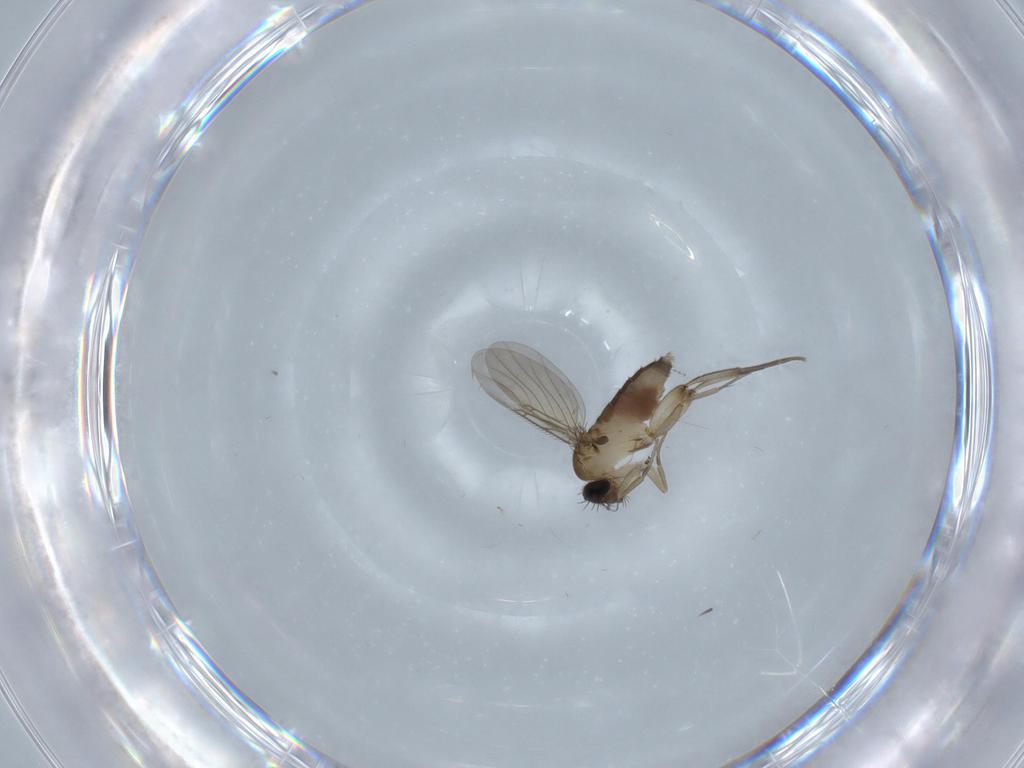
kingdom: Animalia
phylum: Arthropoda
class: Insecta
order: Diptera
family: Phoridae
